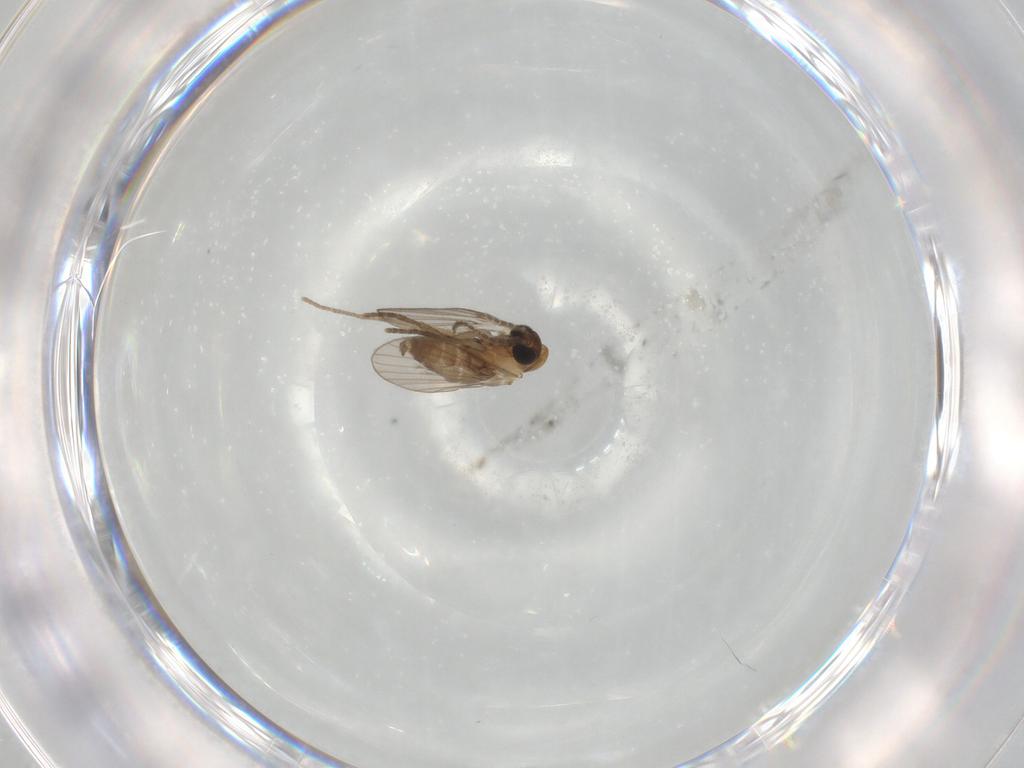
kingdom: Animalia
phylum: Arthropoda
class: Insecta
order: Diptera
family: Psychodidae
